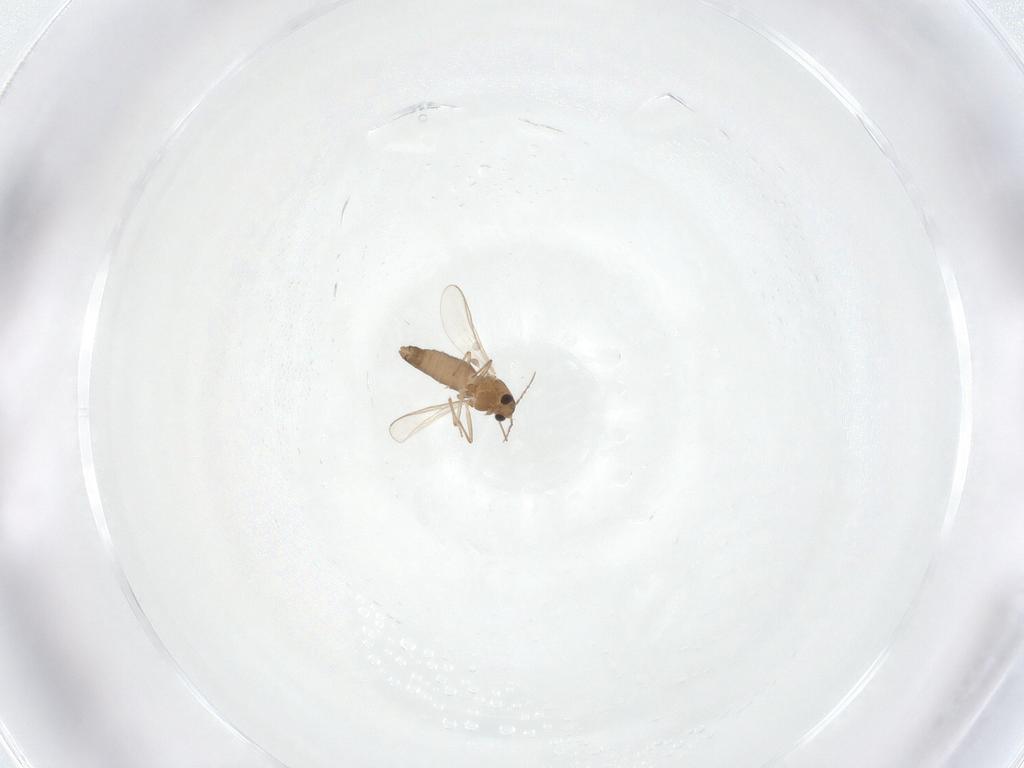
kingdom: Animalia
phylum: Arthropoda
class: Insecta
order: Diptera
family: Chironomidae
